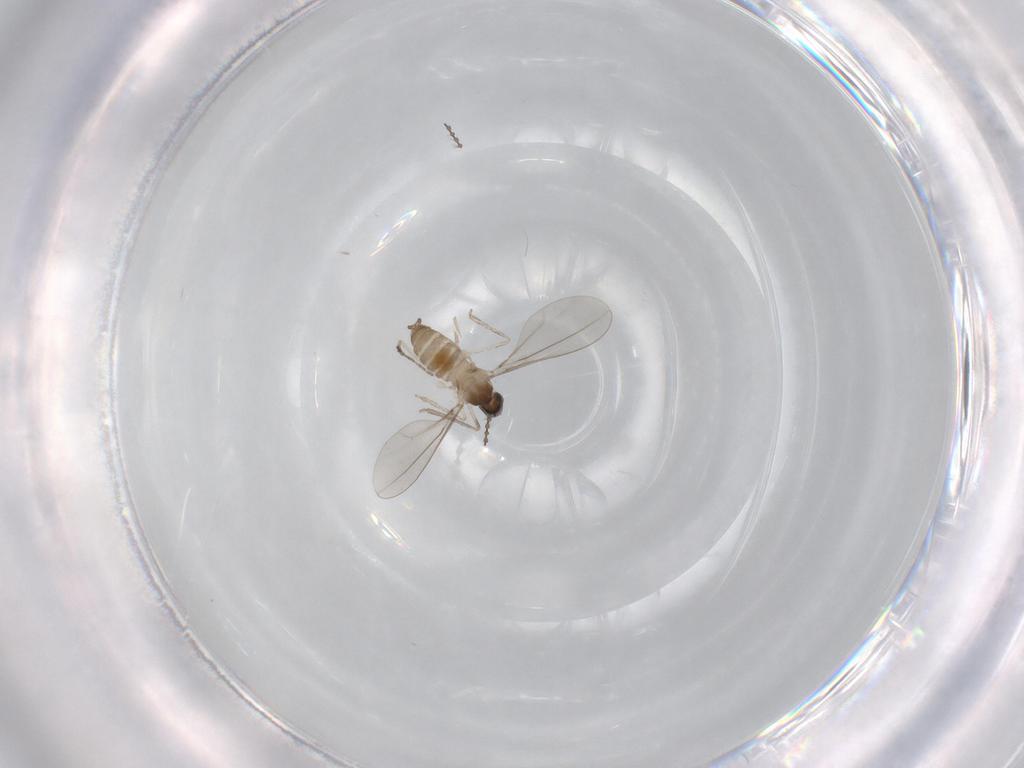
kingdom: Animalia
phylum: Arthropoda
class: Insecta
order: Diptera
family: Cecidomyiidae
